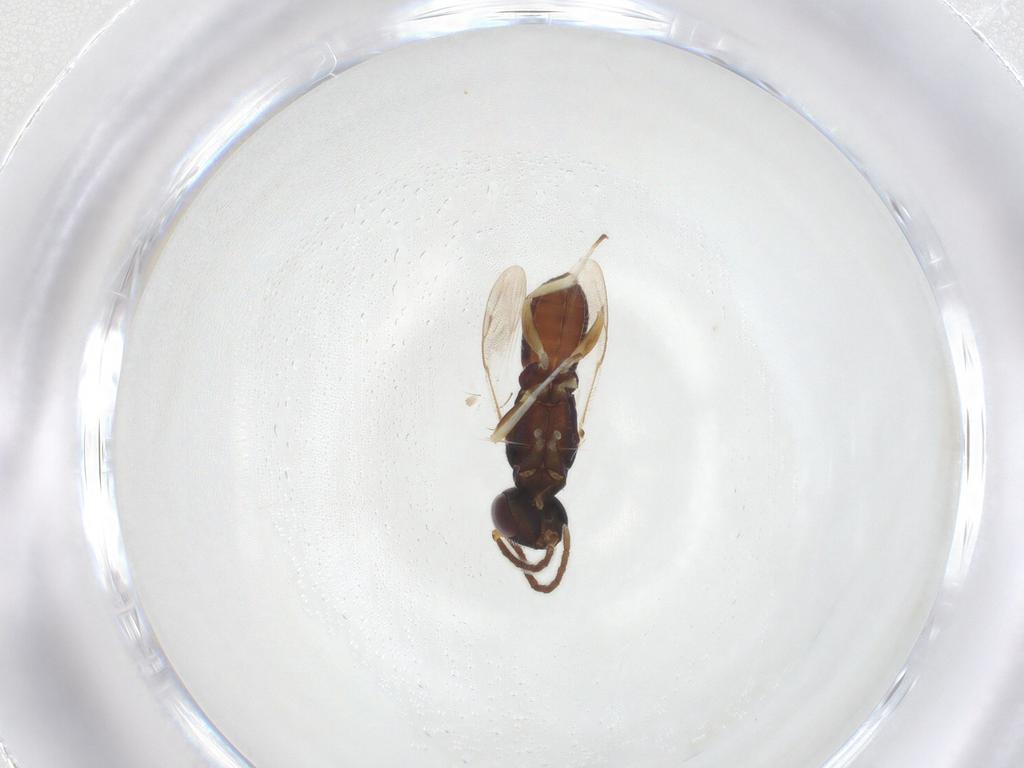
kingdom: Animalia
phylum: Arthropoda
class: Insecta
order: Hymenoptera
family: Pteromalidae
